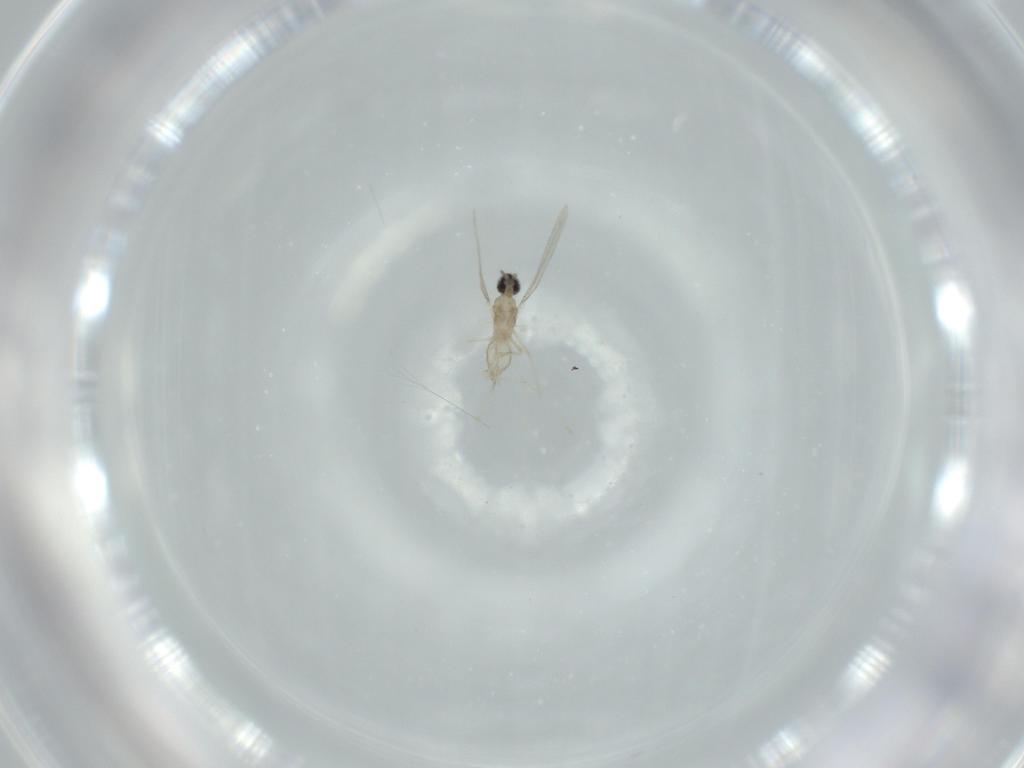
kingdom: Animalia
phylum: Arthropoda
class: Insecta
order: Diptera
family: Cecidomyiidae
